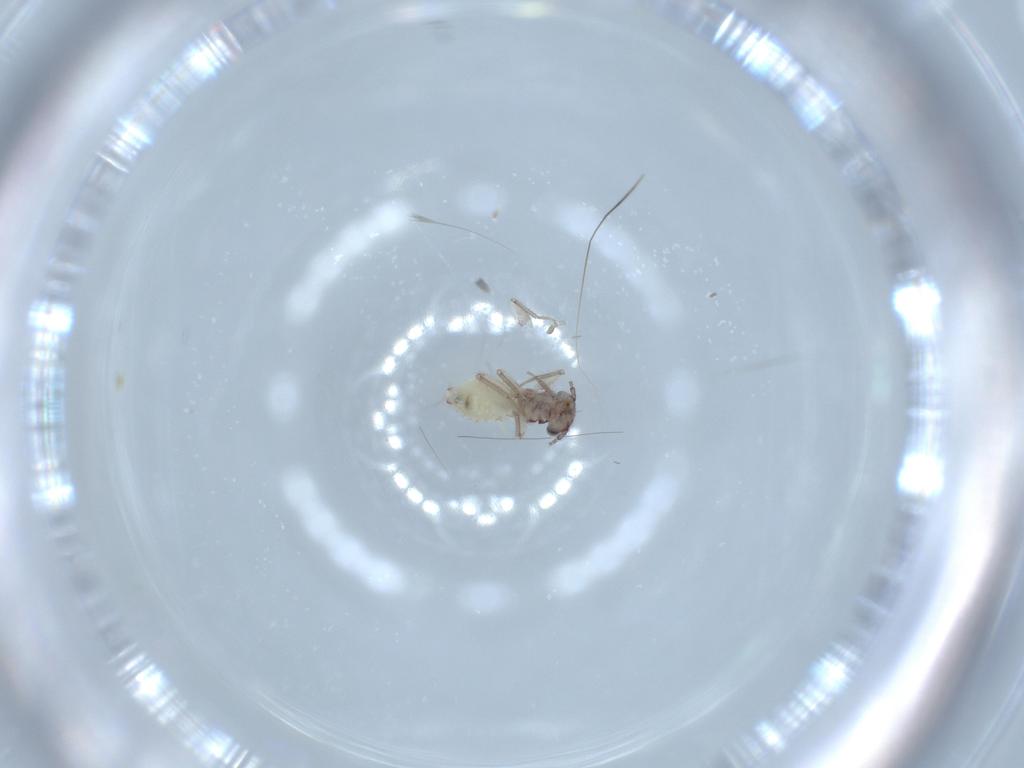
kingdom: Animalia
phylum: Arthropoda
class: Insecta
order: Psocodea
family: Lepidopsocidae
